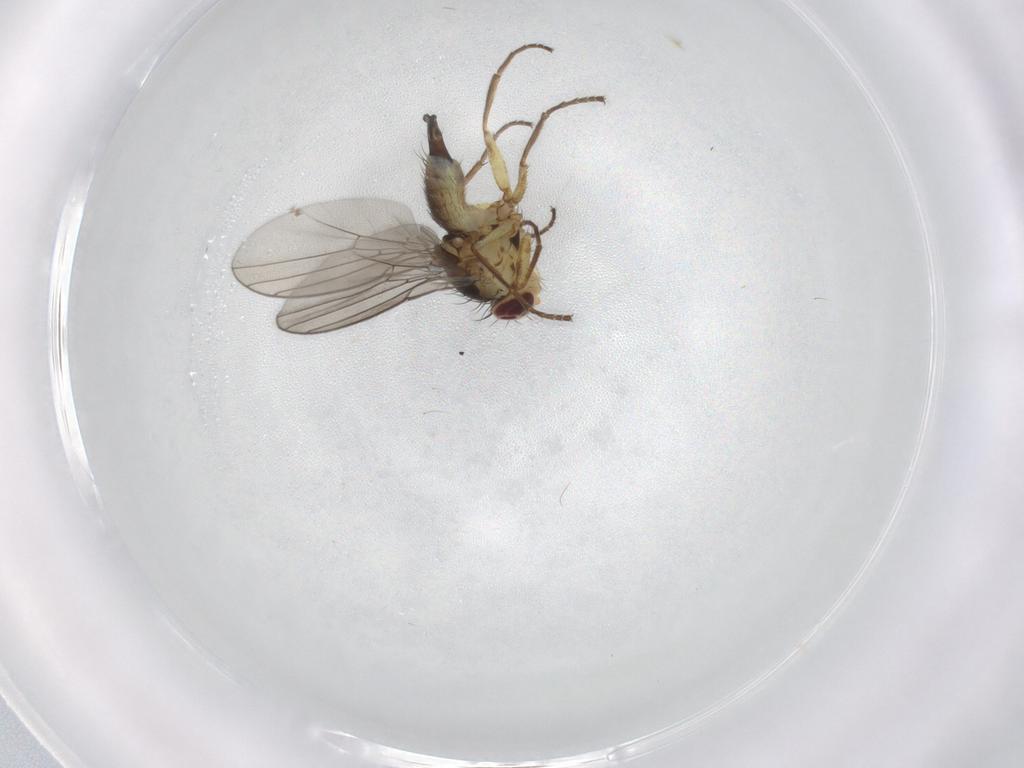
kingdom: Animalia
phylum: Arthropoda
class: Insecta
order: Diptera
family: Agromyzidae
